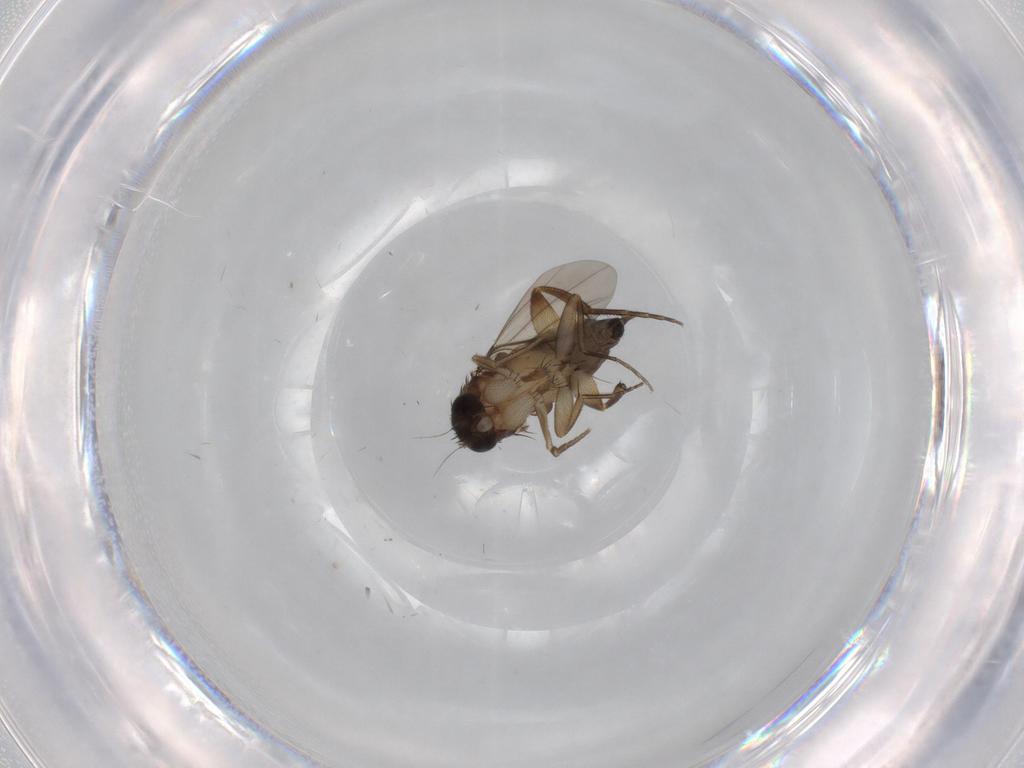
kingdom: Animalia
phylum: Arthropoda
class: Insecta
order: Diptera
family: Phoridae
